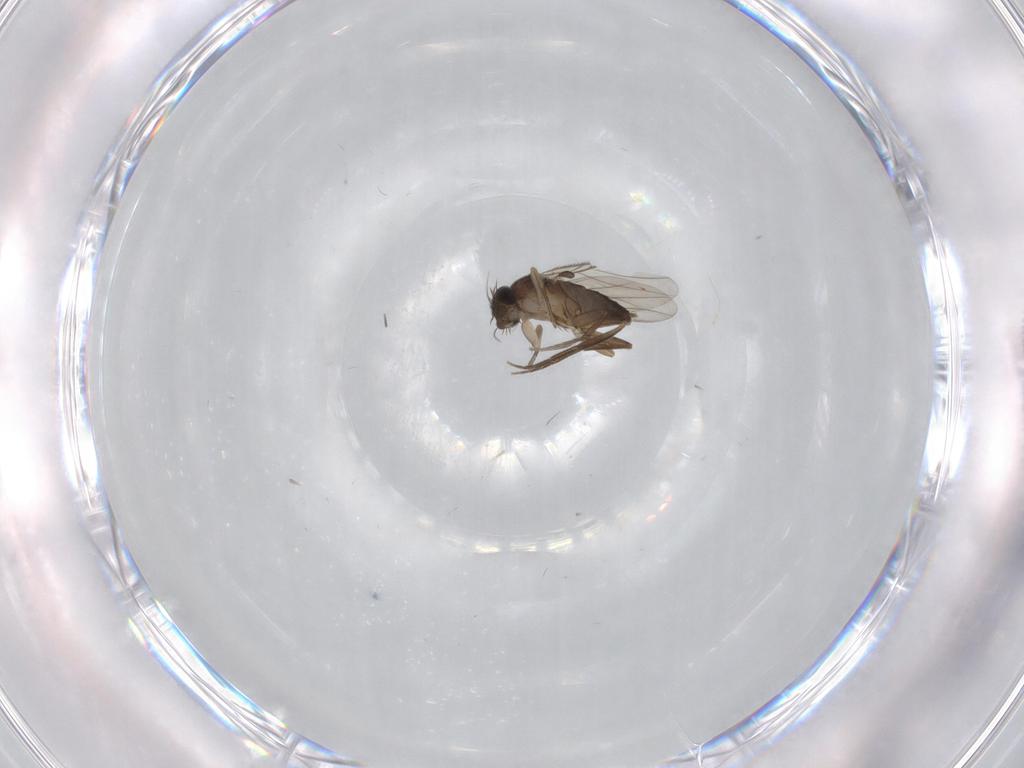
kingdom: Animalia
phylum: Arthropoda
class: Insecta
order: Diptera
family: Phoridae
